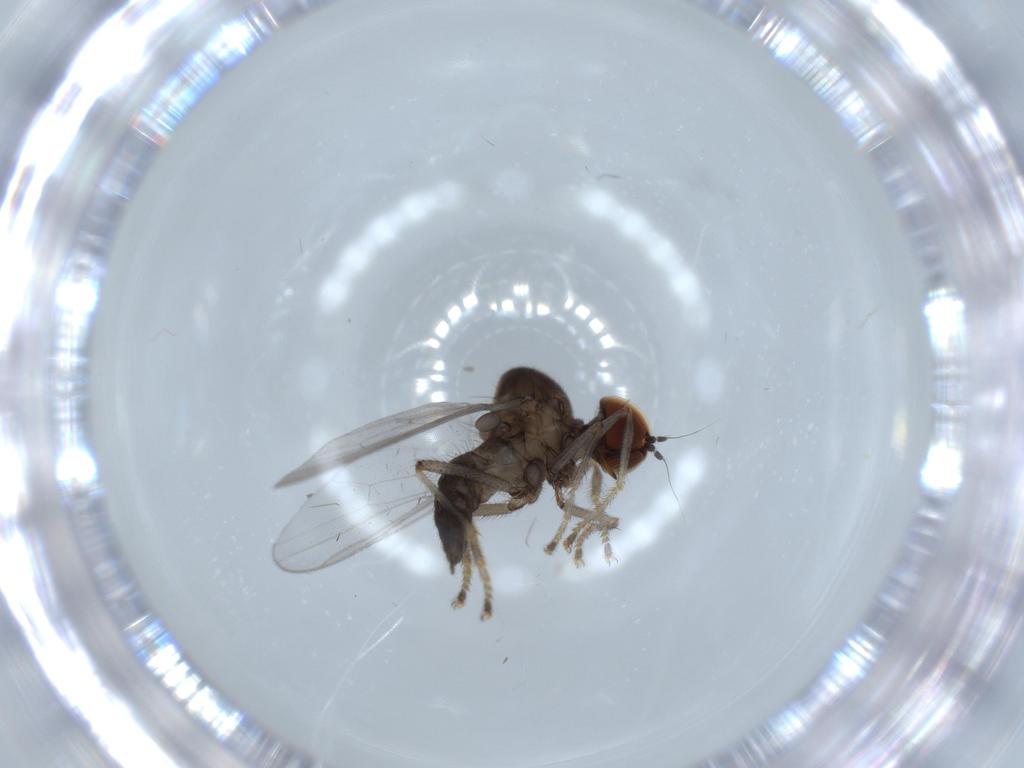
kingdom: Animalia
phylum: Arthropoda
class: Insecta
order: Diptera
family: Hybotidae
